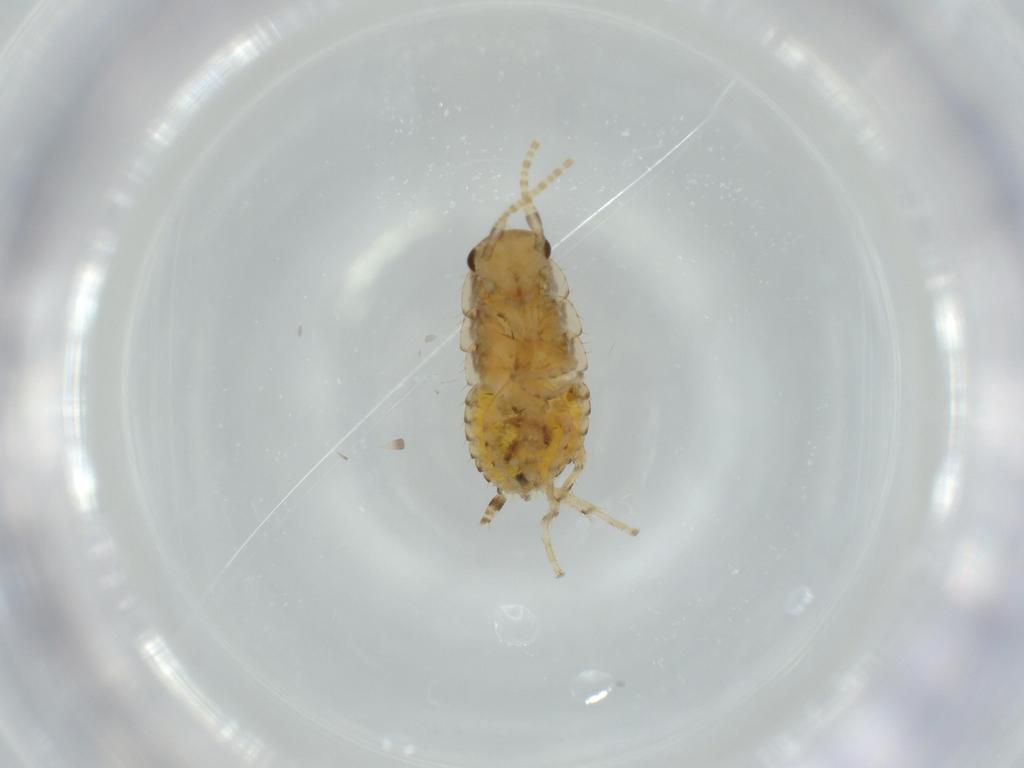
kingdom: Animalia
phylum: Arthropoda
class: Insecta
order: Blattodea
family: Ectobiidae
